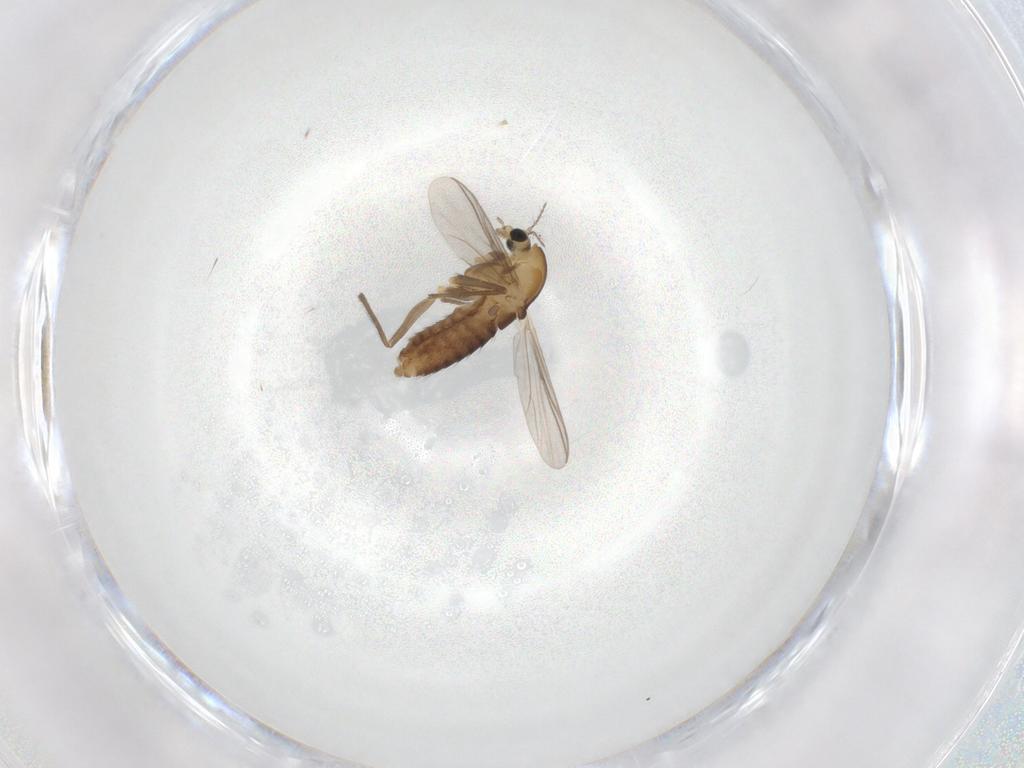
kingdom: Animalia
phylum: Arthropoda
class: Insecta
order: Diptera
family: Chironomidae
